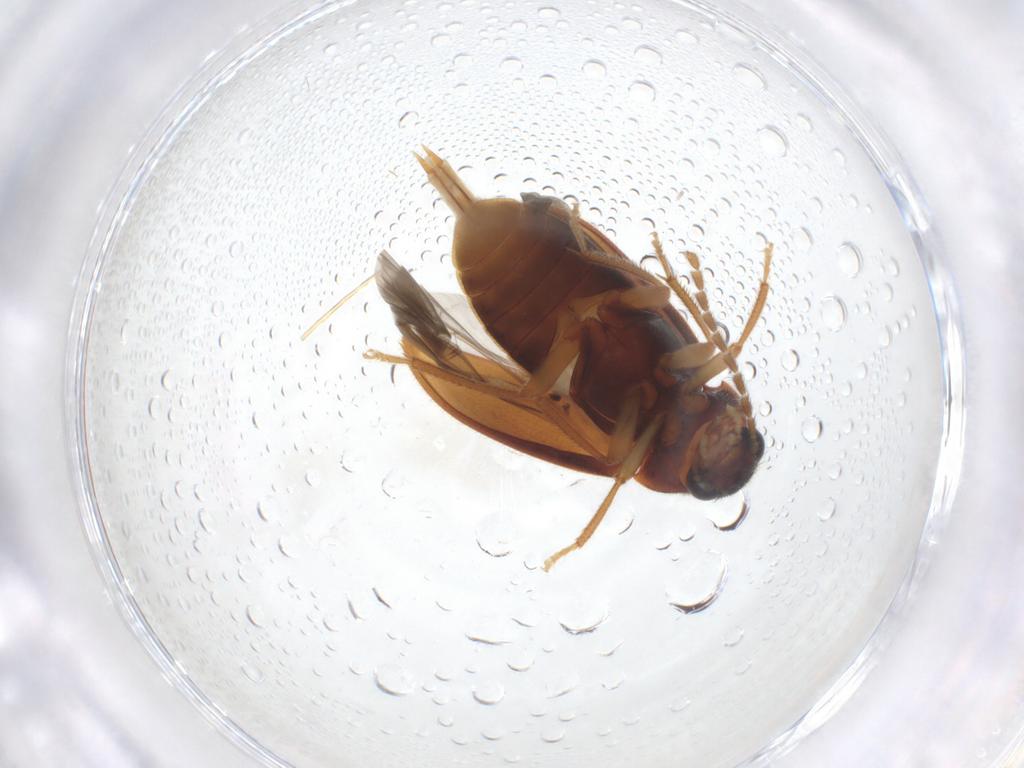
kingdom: Animalia
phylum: Arthropoda
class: Insecta
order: Coleoptera
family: Ptilodactylidae
